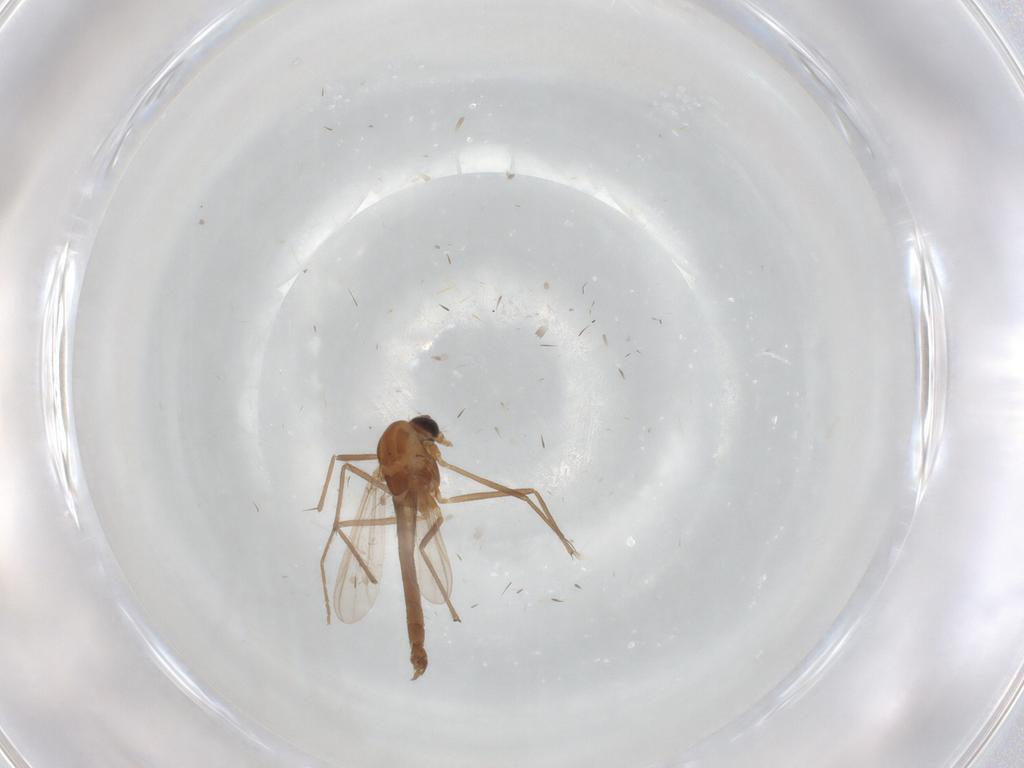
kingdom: Animalia
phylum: Arthropoda
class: Insecta
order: Diptera
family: Chironomidae
